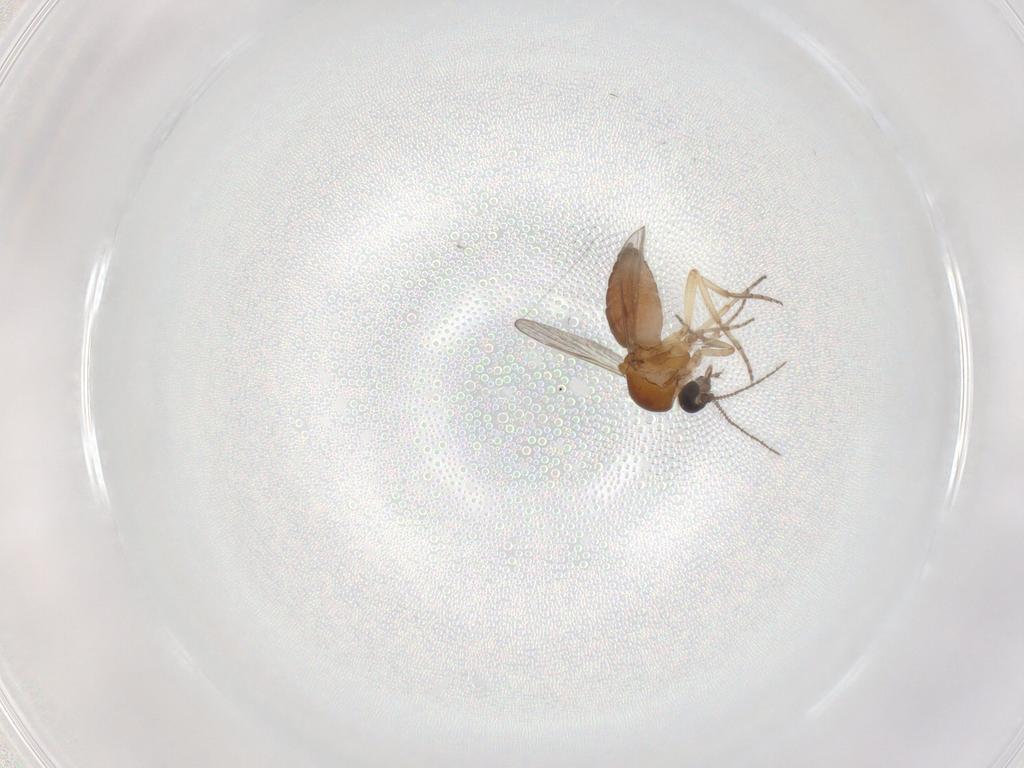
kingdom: Animalia
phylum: Arthropoda
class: Insecta
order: Diptera
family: Ceratopogonidae
